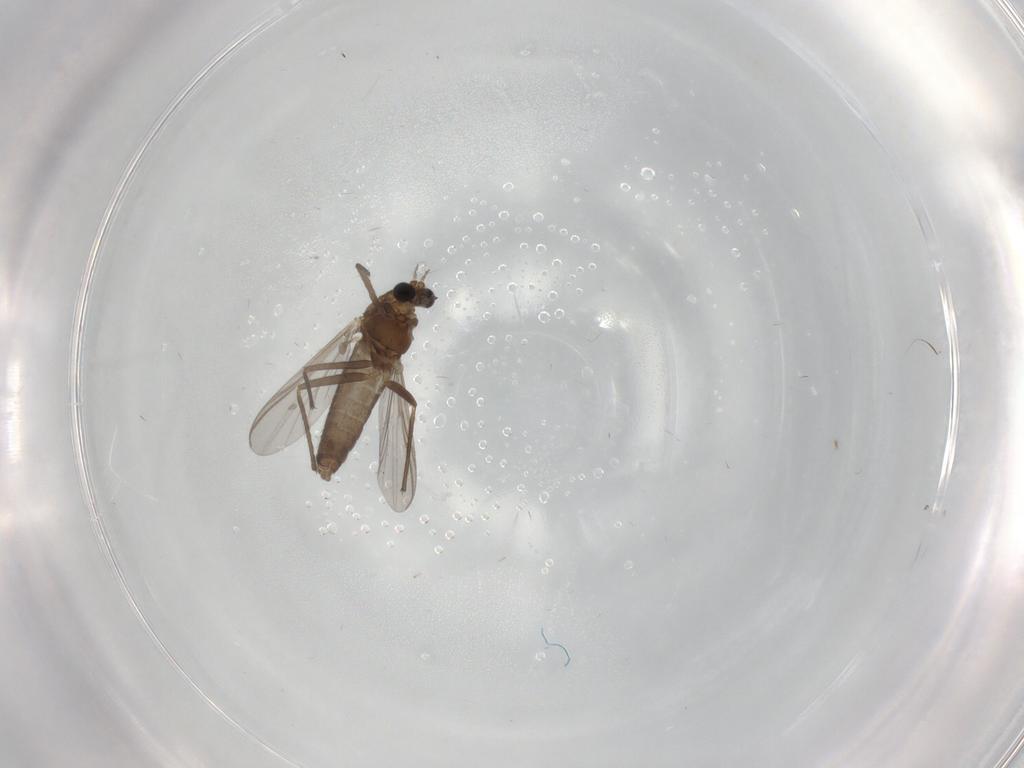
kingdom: Animalia
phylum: Arthropoda
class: Insecta
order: Diptera
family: Chironomidae
